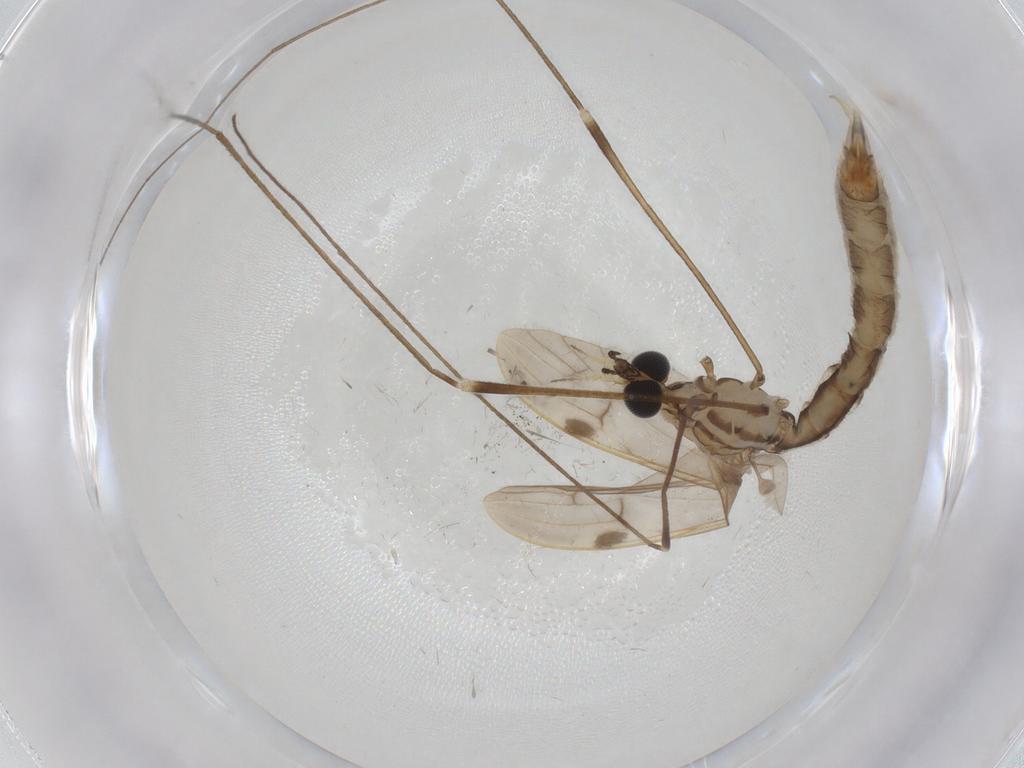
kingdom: Animalia
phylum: Arthropoda
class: Insecta
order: Diptera
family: Limoniidae
